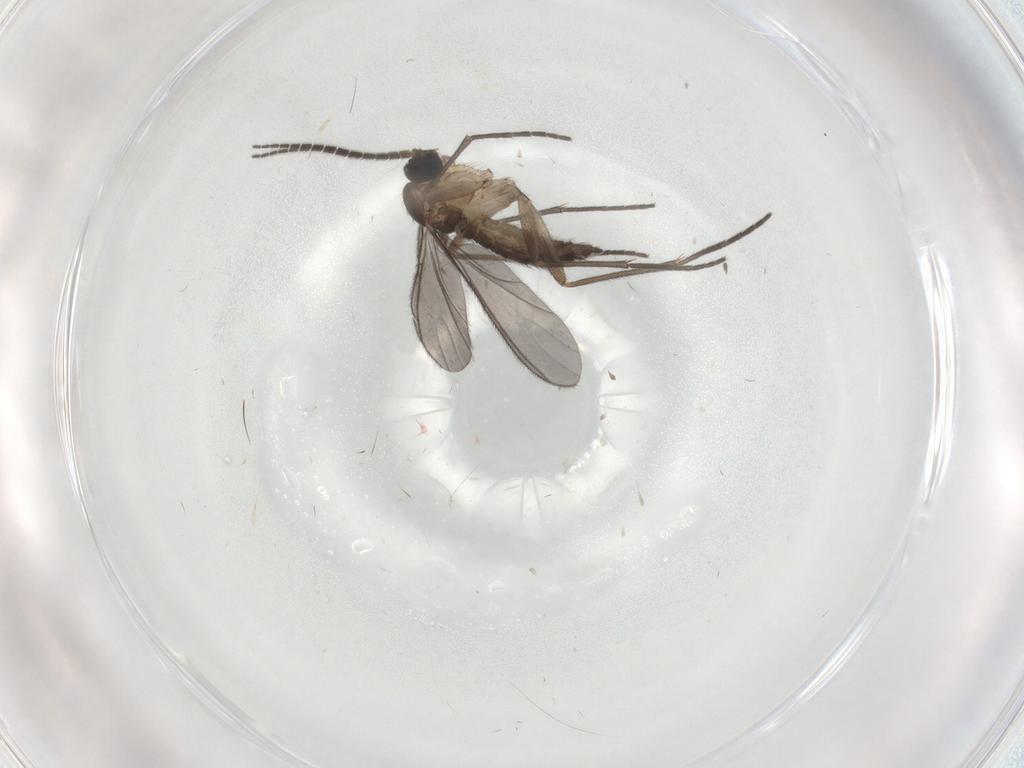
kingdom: Animalia
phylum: Arthropoda
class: Insecta
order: Diptera
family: Sciaridae
